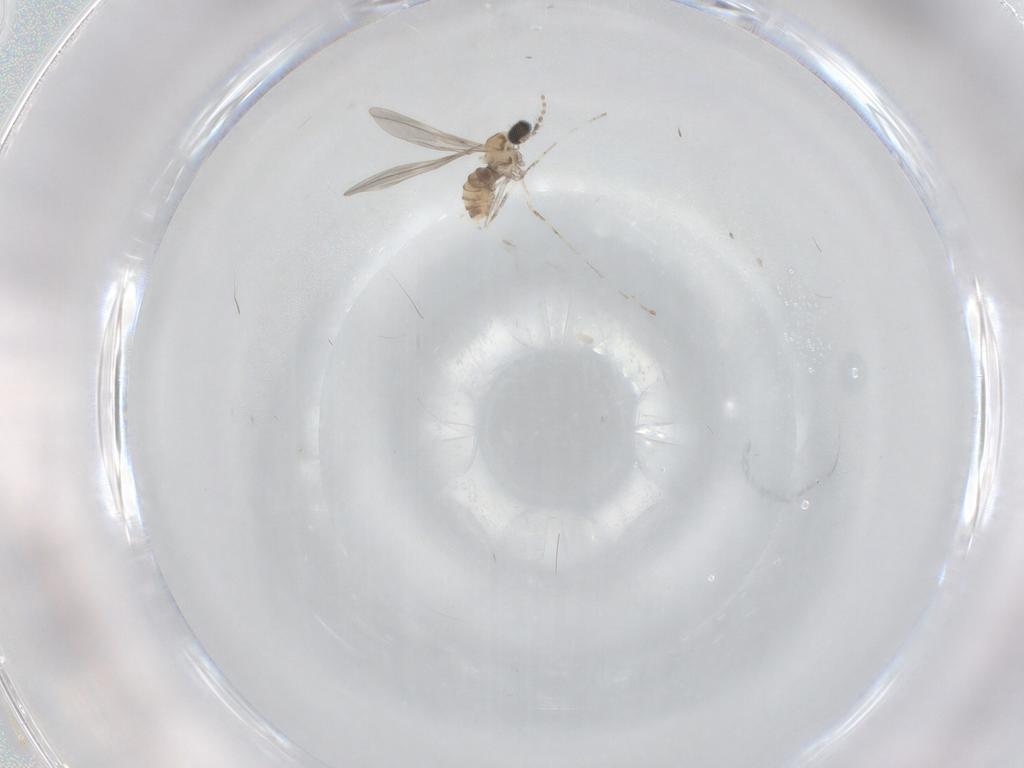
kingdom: Animalia
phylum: Arthropoda
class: Insecta
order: Diptera
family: Cecidomyiidae
